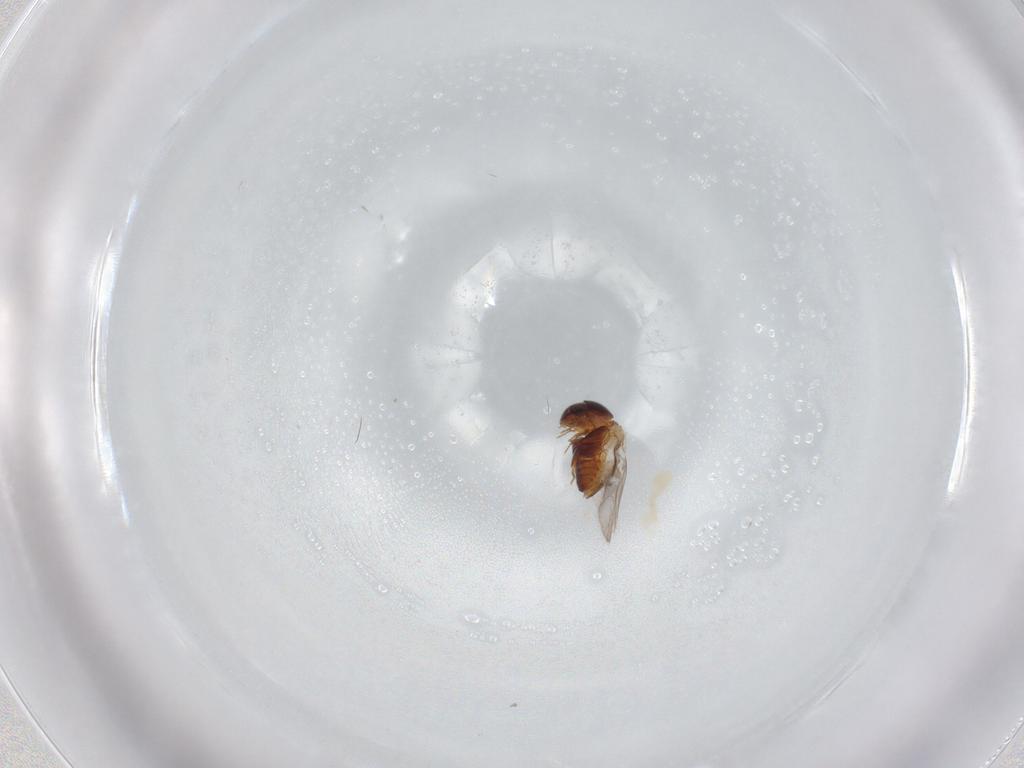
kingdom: Animalia
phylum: Arthropoda
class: Insecta
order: Diptera
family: Chironomidae
